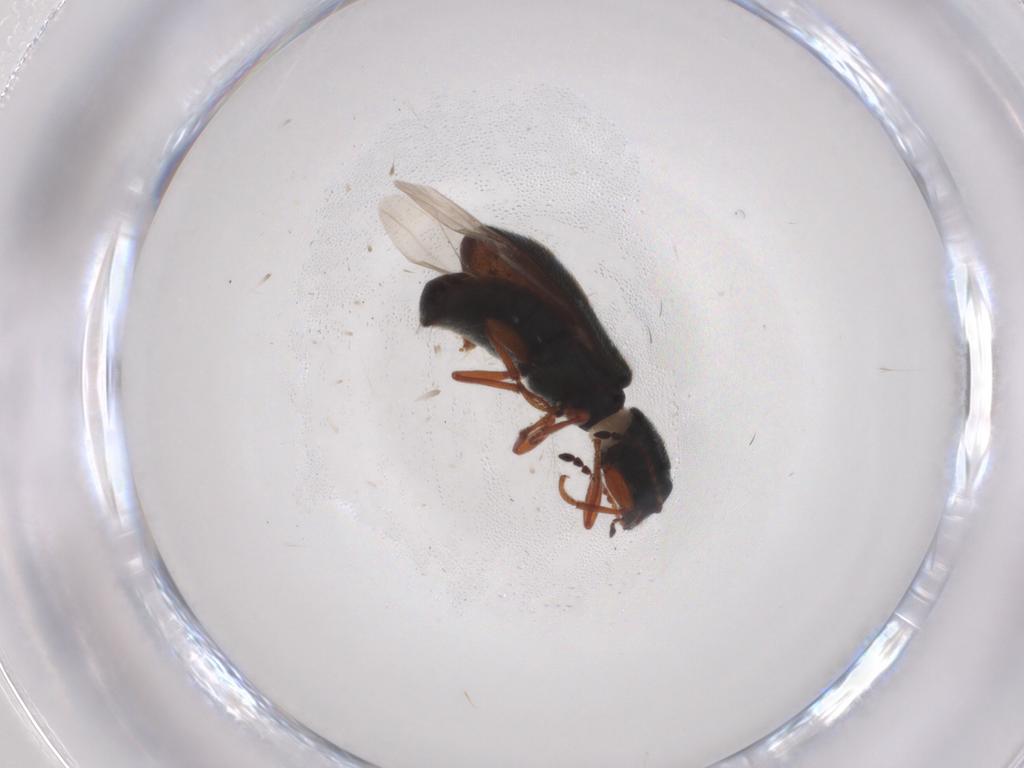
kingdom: Animalia
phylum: Arthropoda
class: Insecta
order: Coleoptera
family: Melyridae
